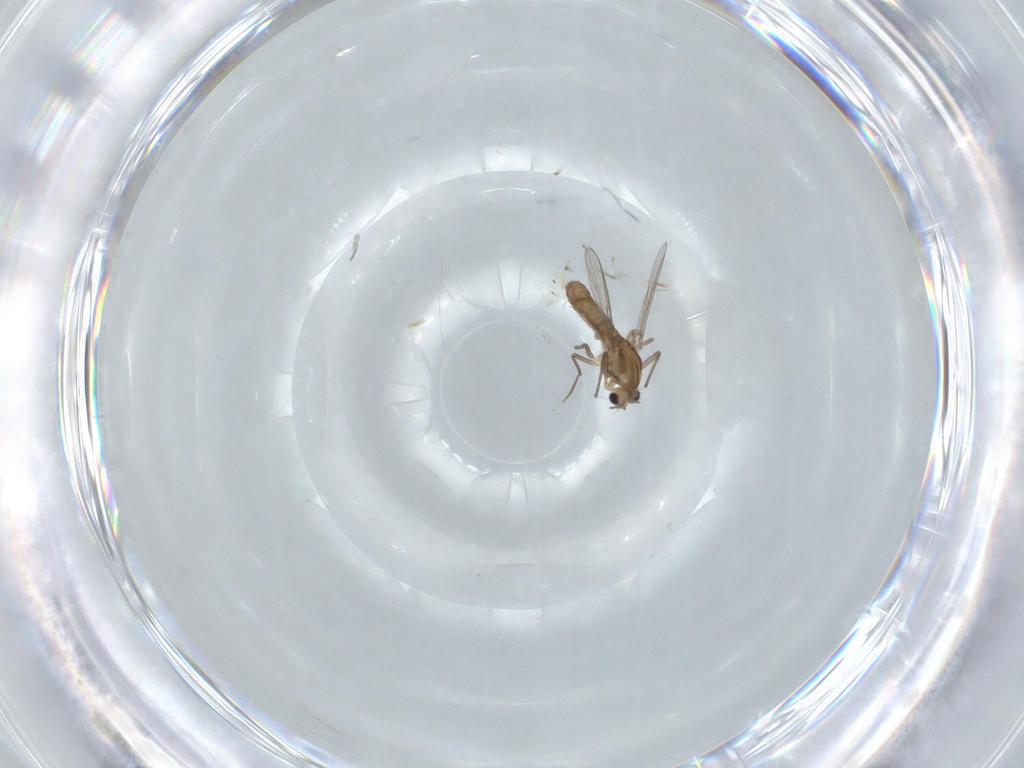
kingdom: Animalia
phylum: Arthropoda
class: Insecta
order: Diptera
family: Chironomidae
